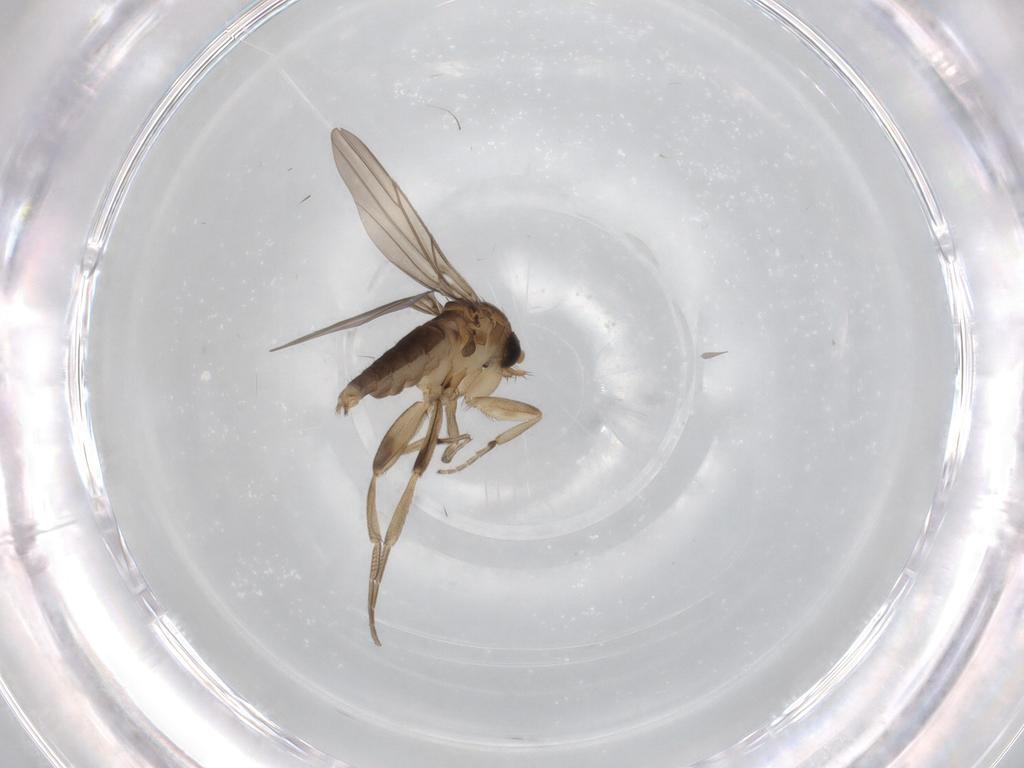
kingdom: Animalia
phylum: Arthropoda
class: Insecta
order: Diptera
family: Phoridae
